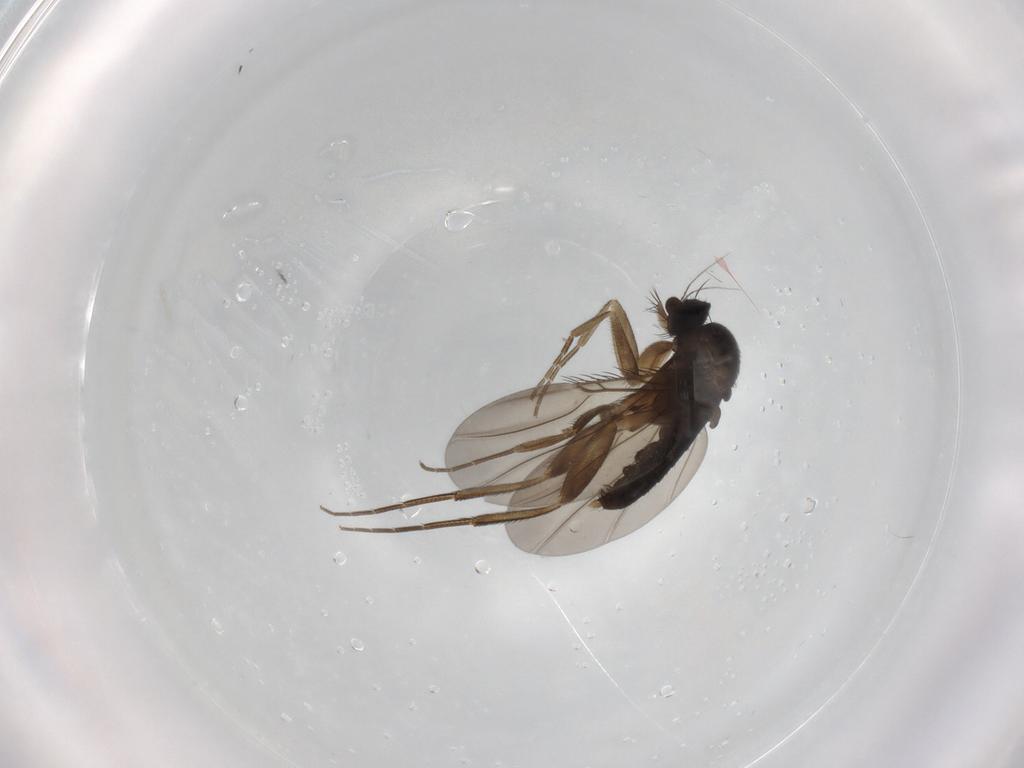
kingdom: Animalia
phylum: Arthropoda
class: Insecta
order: Diptera
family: Phoridae
